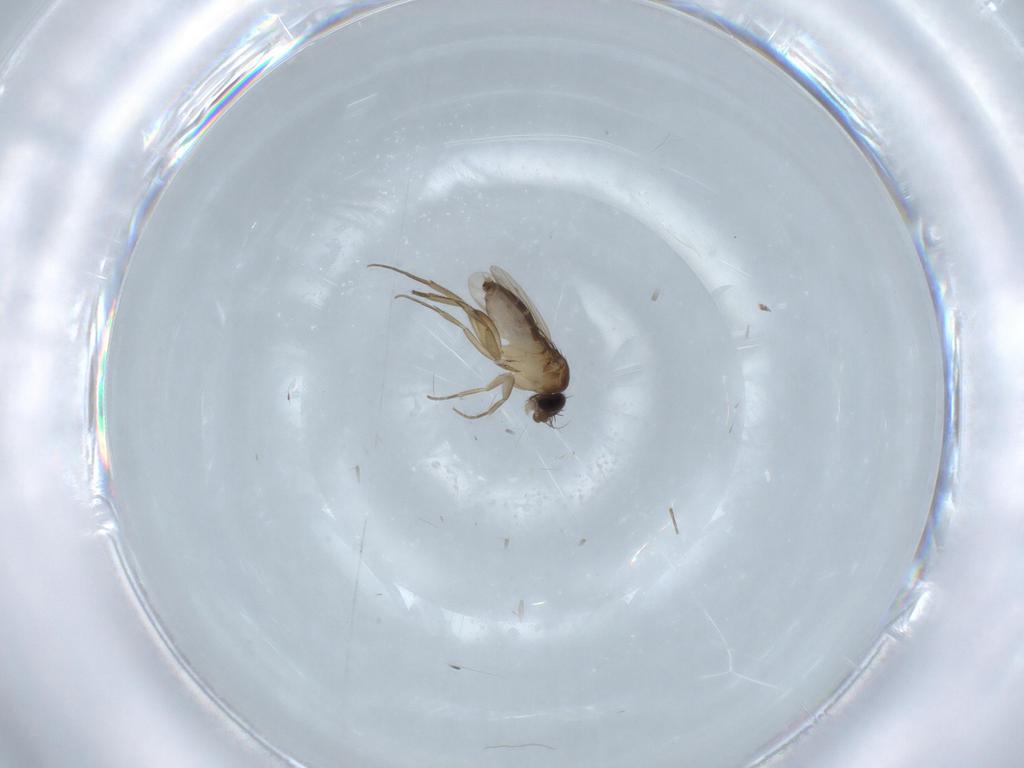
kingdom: Animalia
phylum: Arthropoda
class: Insecta
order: Diptera
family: Phoridae
